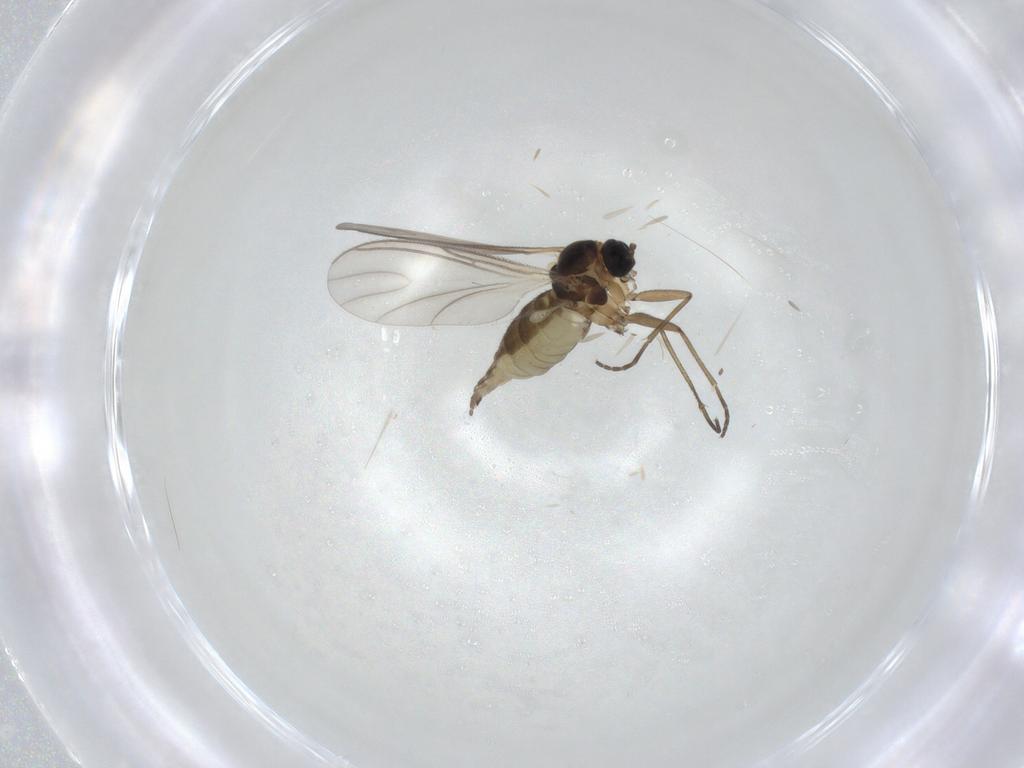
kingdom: Animalia
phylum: Arthropoda
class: Insecta
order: Diptera
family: Heleomyzidae
